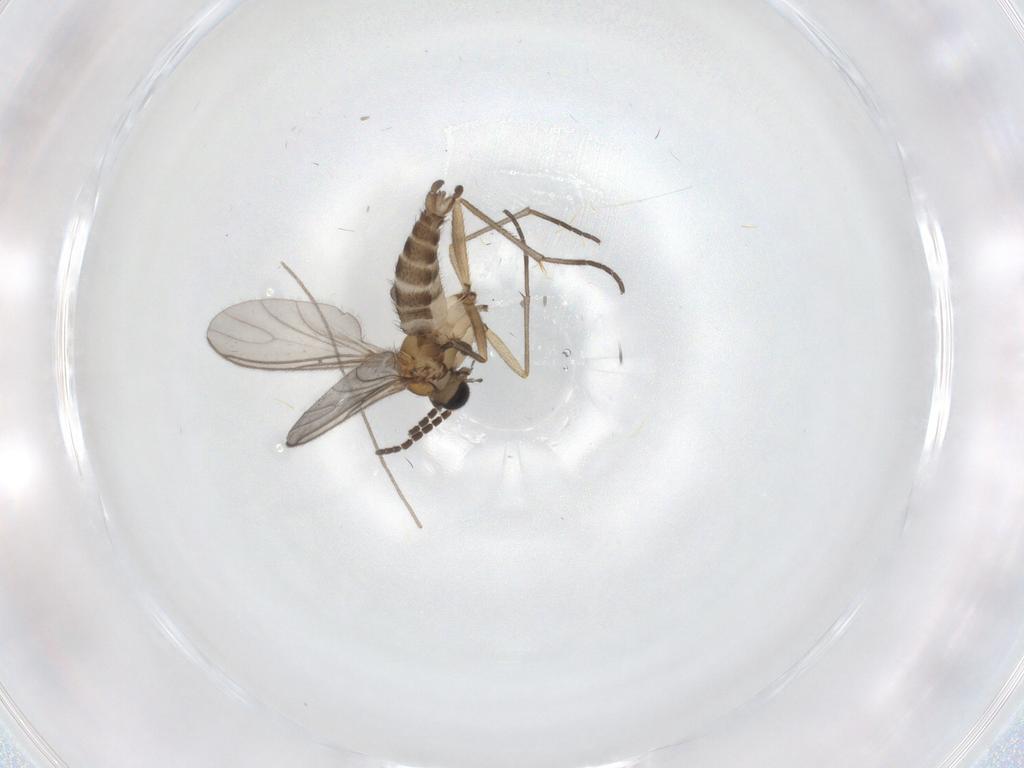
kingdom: Animalia
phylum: Arthropoda
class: Insecta
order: Diptera
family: Sciaridae
